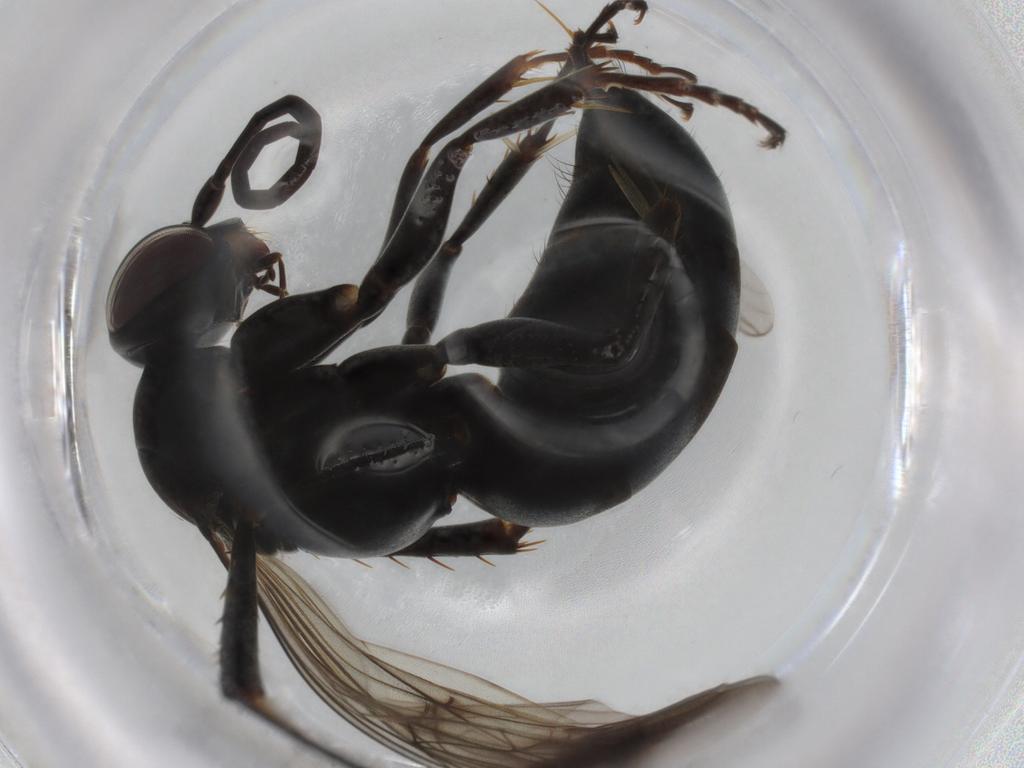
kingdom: Animalia
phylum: Arthropoda
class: Insecta
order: Hymenoptera
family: Pompilidae
